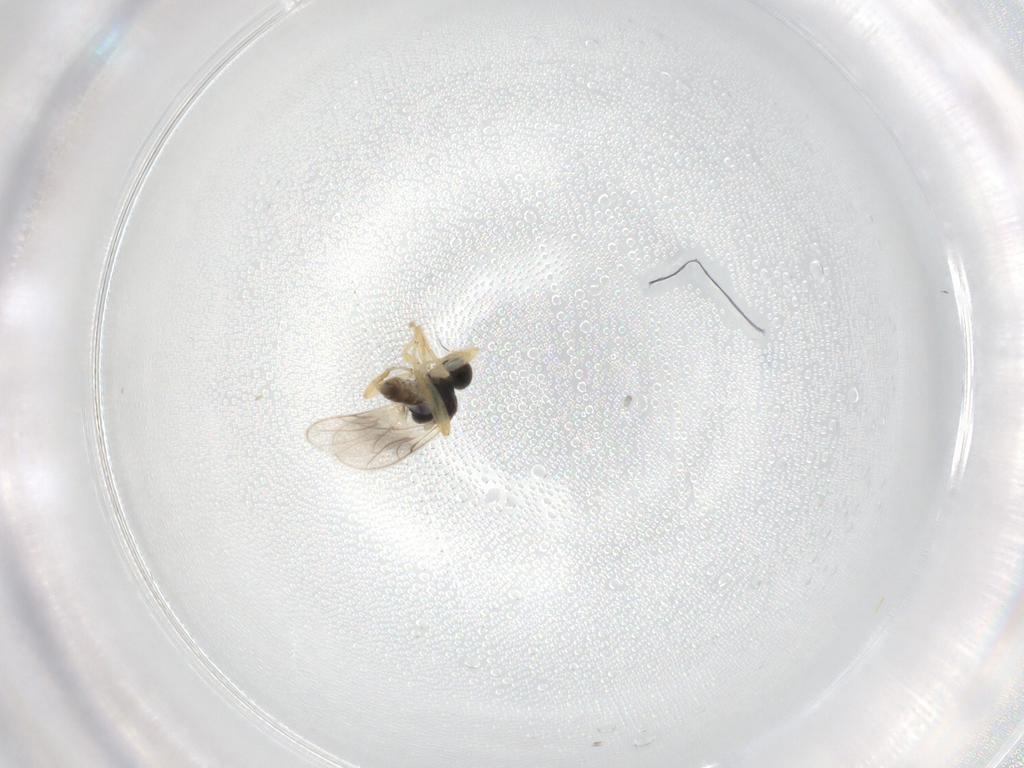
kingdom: Animalia
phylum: Arthropoda
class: Insecta
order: Diptera
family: Hybotidae
